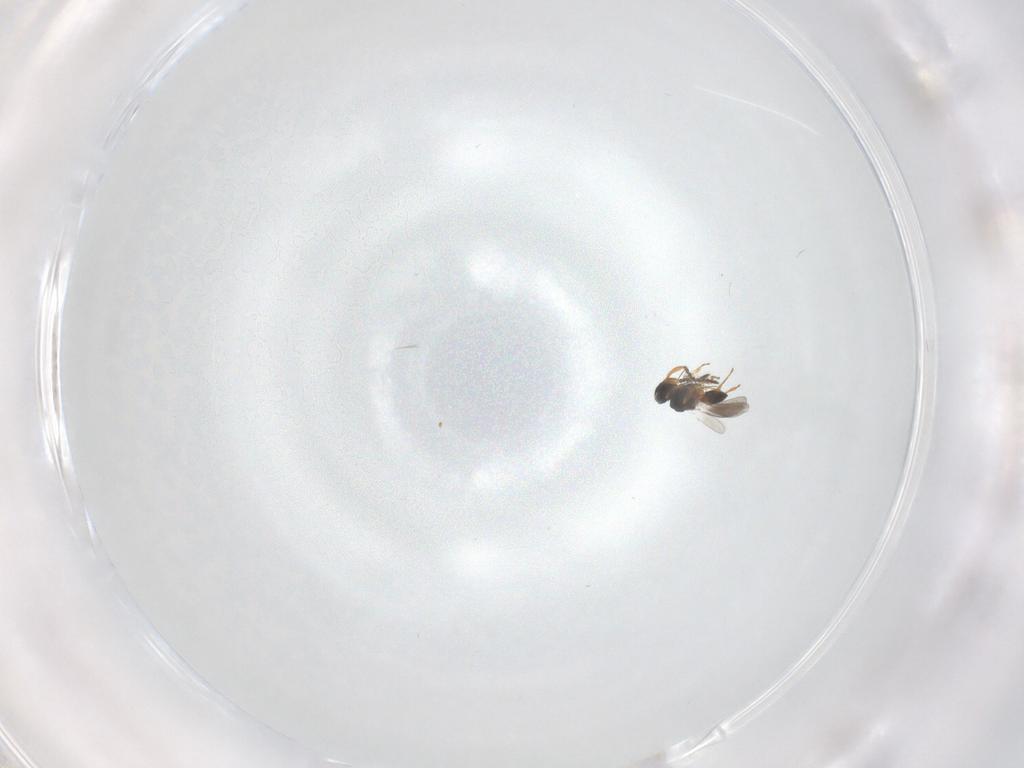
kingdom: Animalia
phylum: Arthropoda
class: Insecta
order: Hymenoptera
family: Platygastridae
